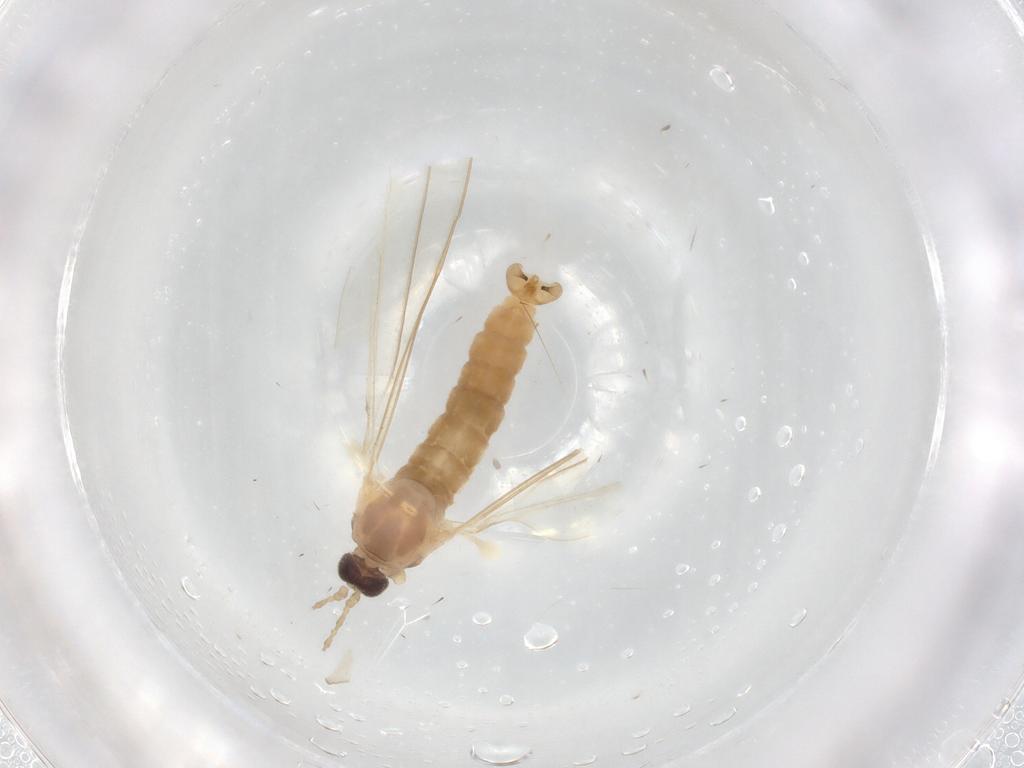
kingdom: Animalia
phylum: Arthropoda
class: Insecta
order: Diptera
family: Cecidomyiidae
